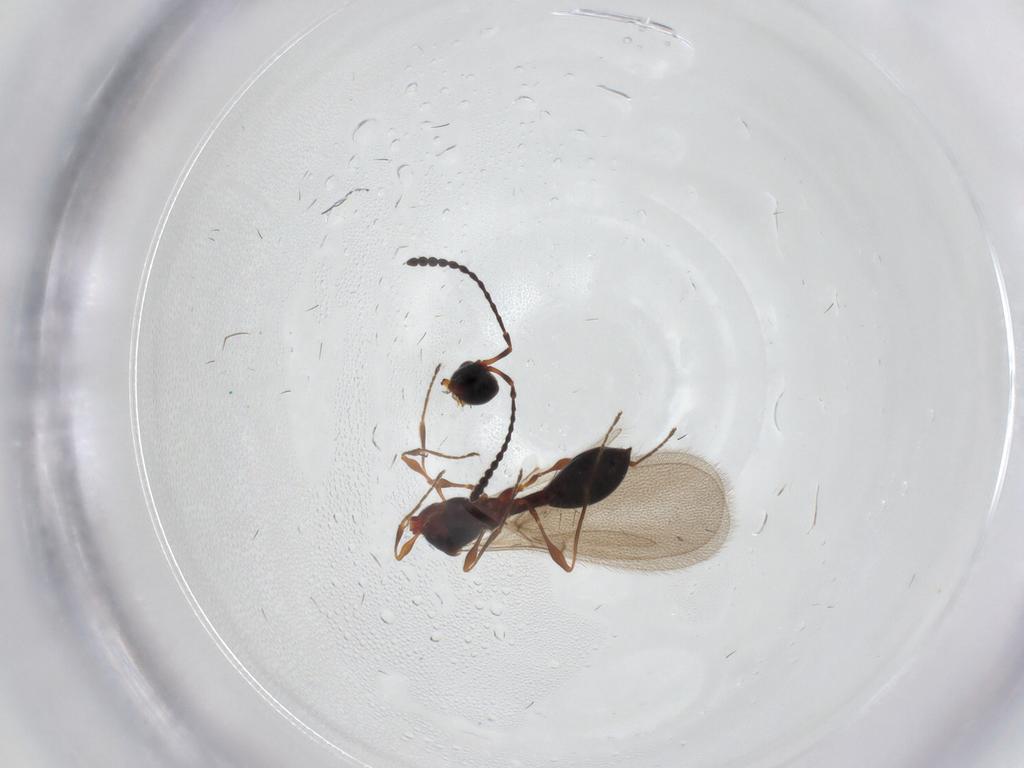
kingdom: Animalia
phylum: Arthropoda
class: Insecta
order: Hymenoptera
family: Diapriidae
